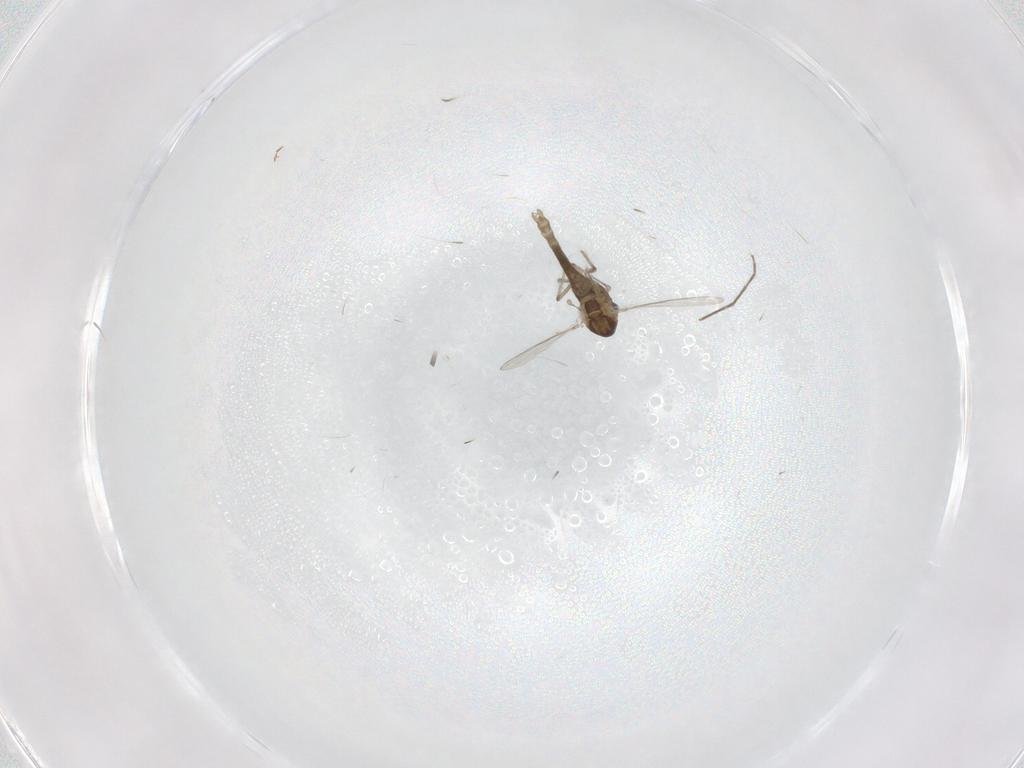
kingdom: Animalia
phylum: Arthropoda
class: Insecta
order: Diptera
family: Chironomidae
